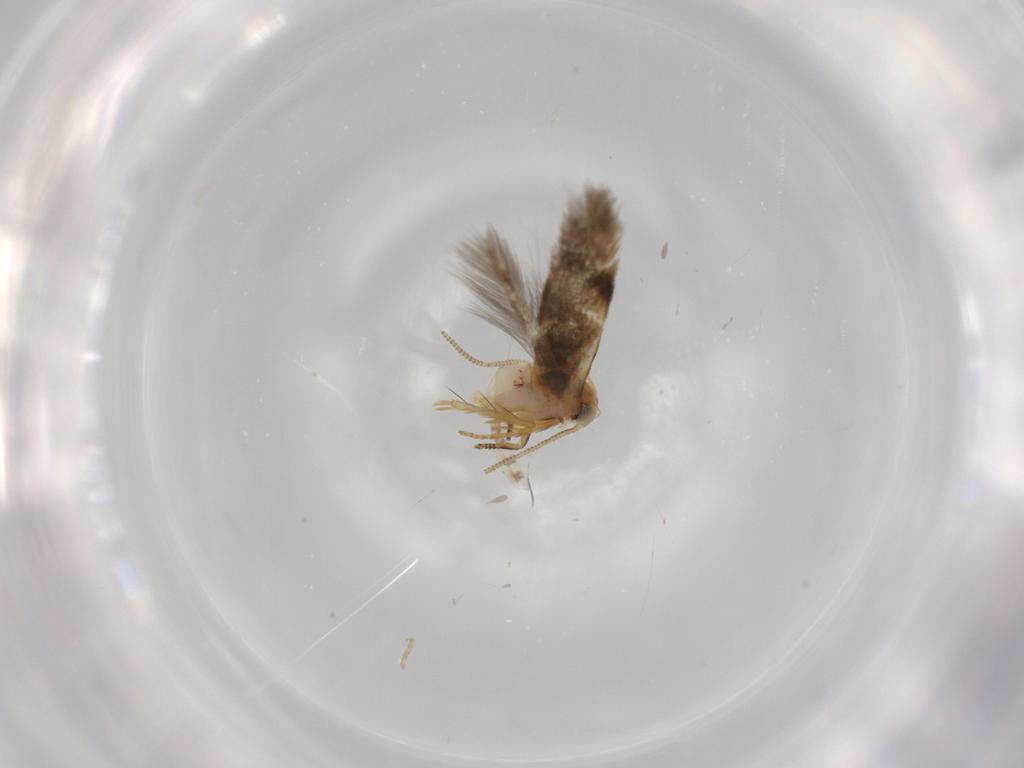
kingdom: Animalia
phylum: Arthropoda
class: Insecta
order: Lepidoptera
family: Nepticulidae
